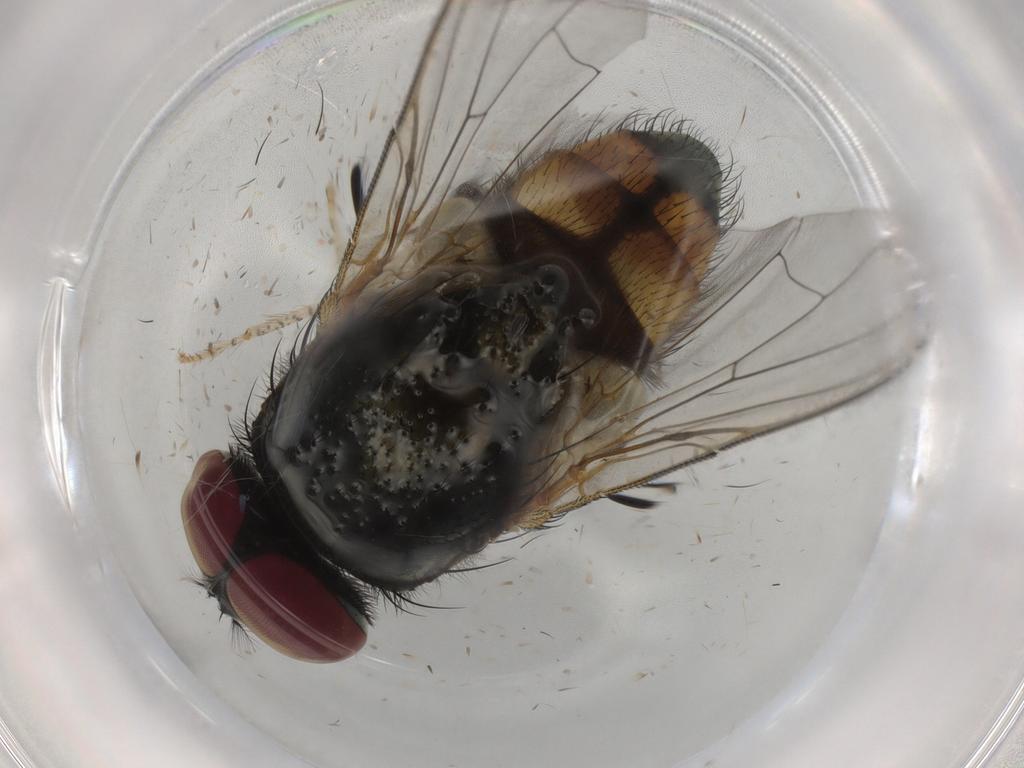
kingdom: Animalia
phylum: Arthropoda
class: Insecta
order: Diptera
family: Muscidae
